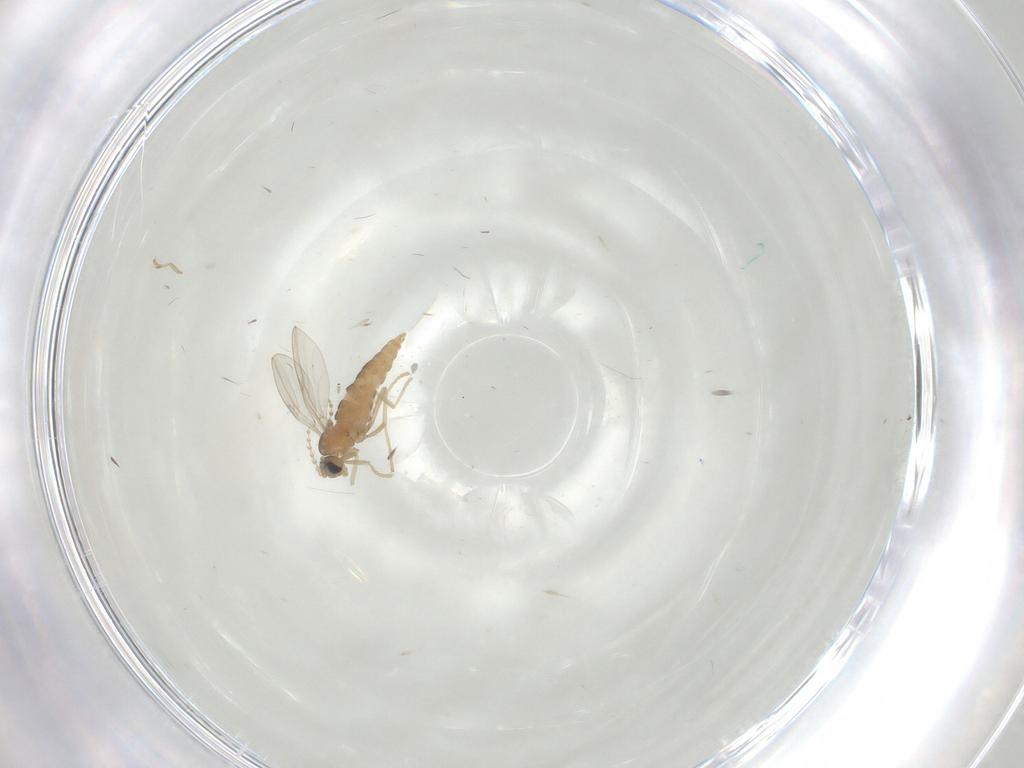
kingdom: Animalia
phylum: Arthropoda
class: Insecta
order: Diptera
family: Cecidomyiidae
